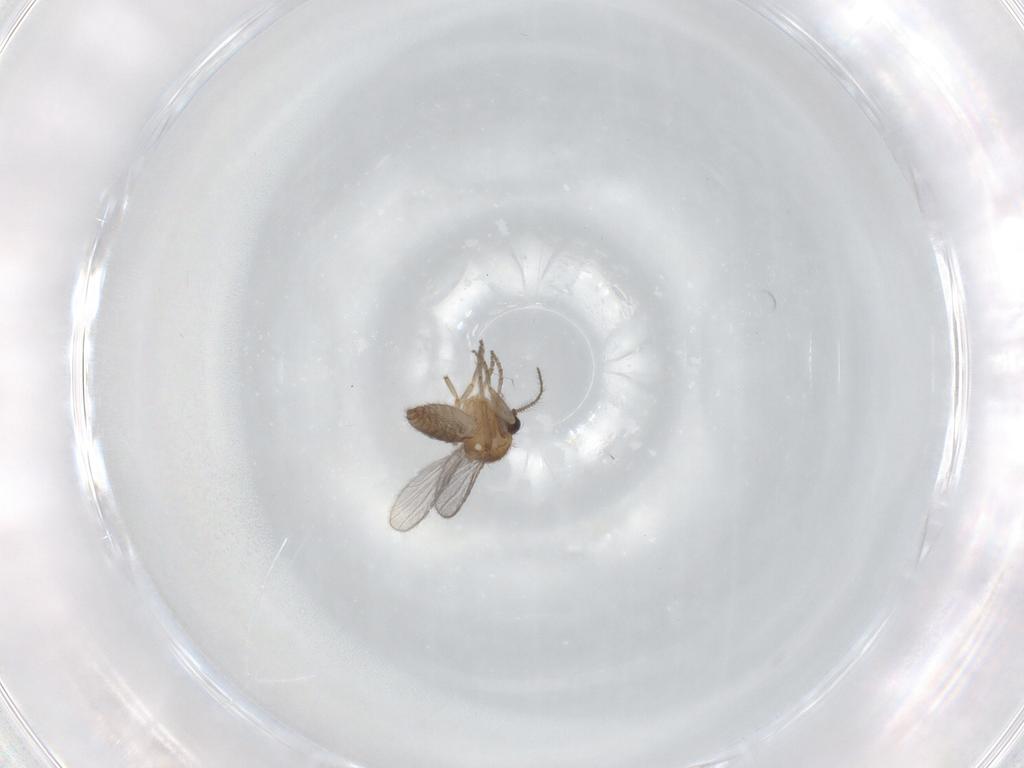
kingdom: Animalia
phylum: Arthropoda
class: Insecta
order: Diptera
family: Ceratopogonidae
